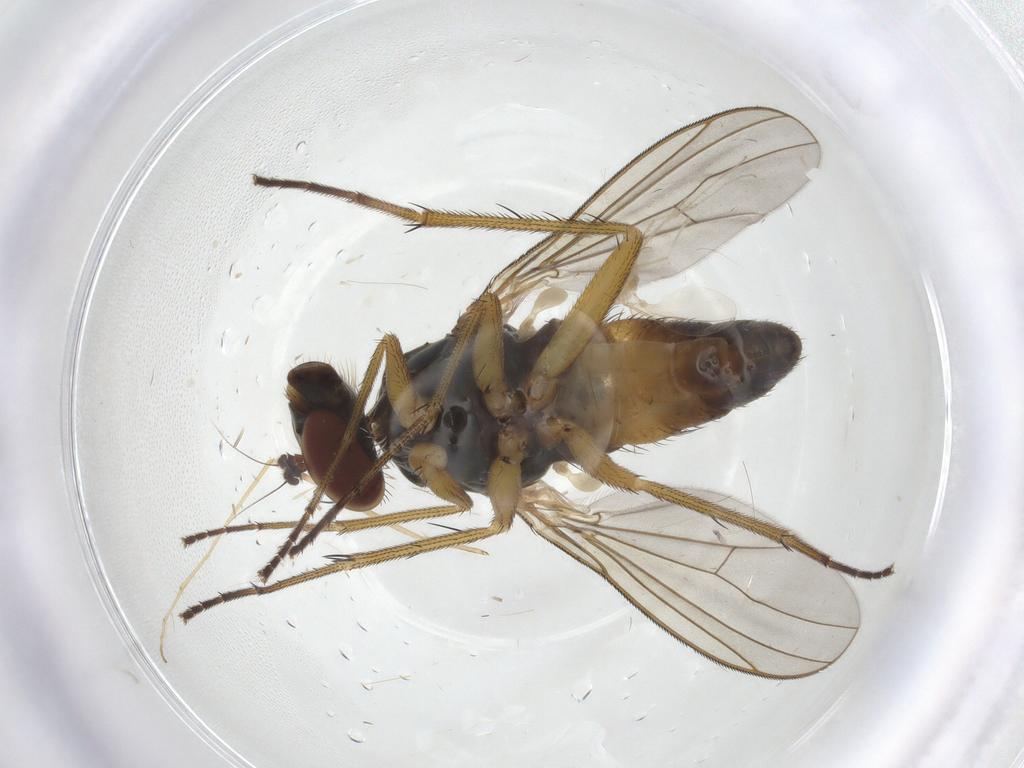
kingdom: Animalia
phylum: Arthropoda
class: Insecta
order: Diptera
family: Limoniidae
